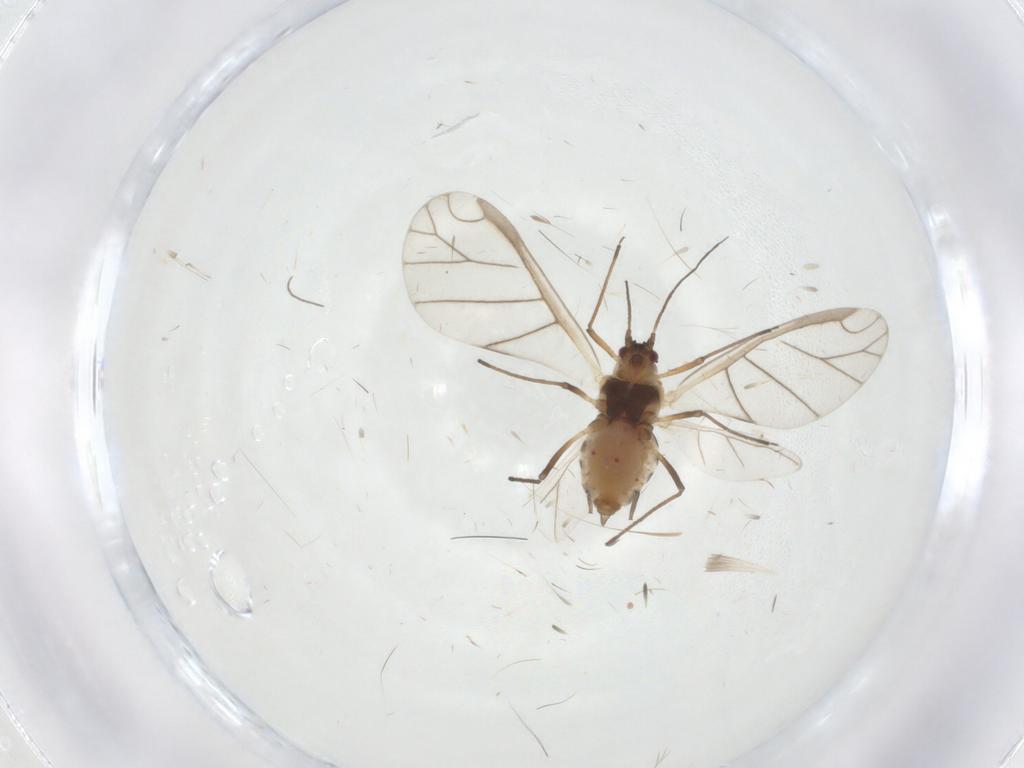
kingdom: Animalia
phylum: Arthropoda
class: Insecta
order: Hemiptera
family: Aphididae
